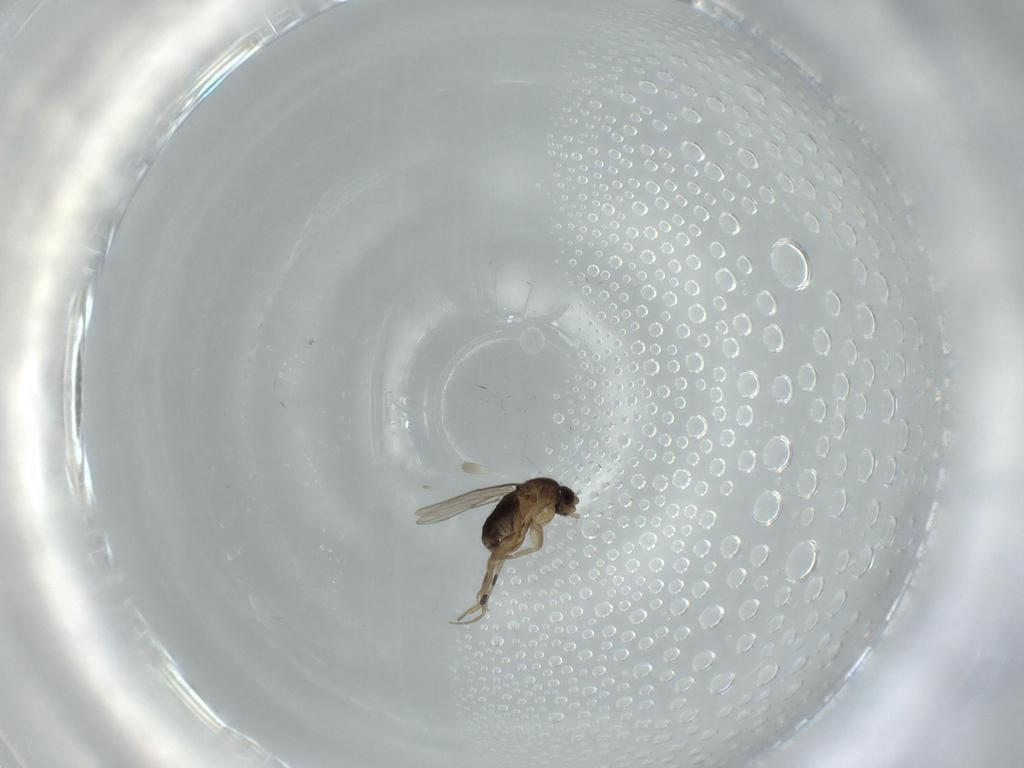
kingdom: Animalia
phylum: Arthropoda
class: Insecta
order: Diptera
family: Phoridae
